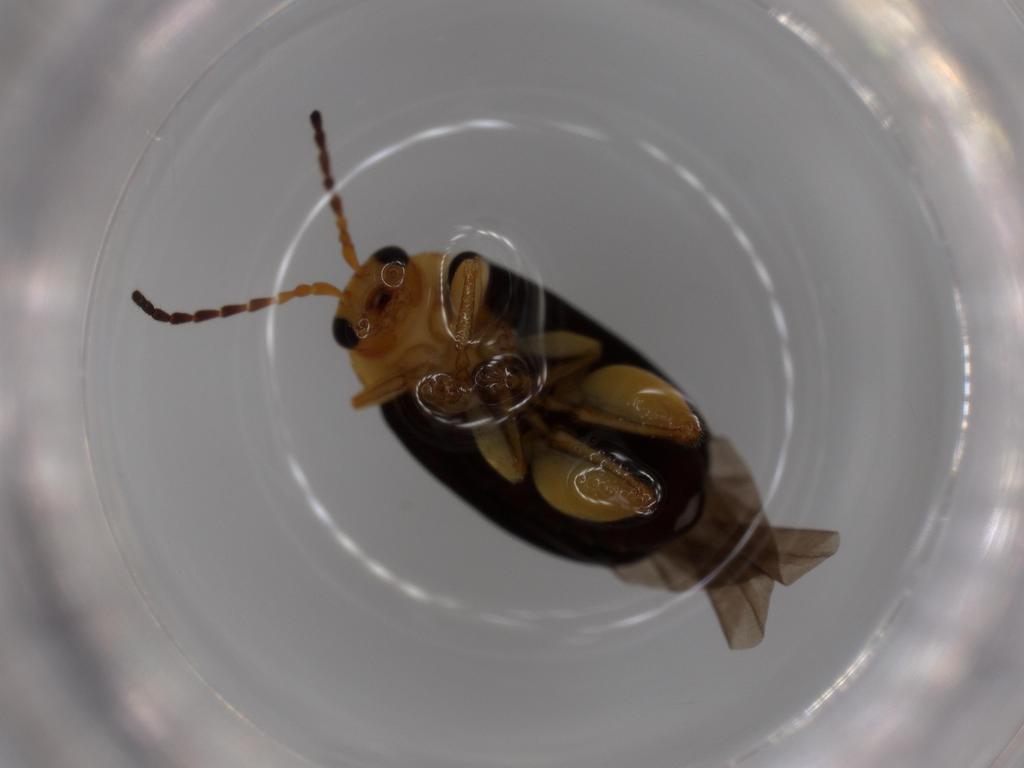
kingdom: Animalia
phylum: Arthropoda
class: Insecta
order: Coleoptera
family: Chrysomelidae
